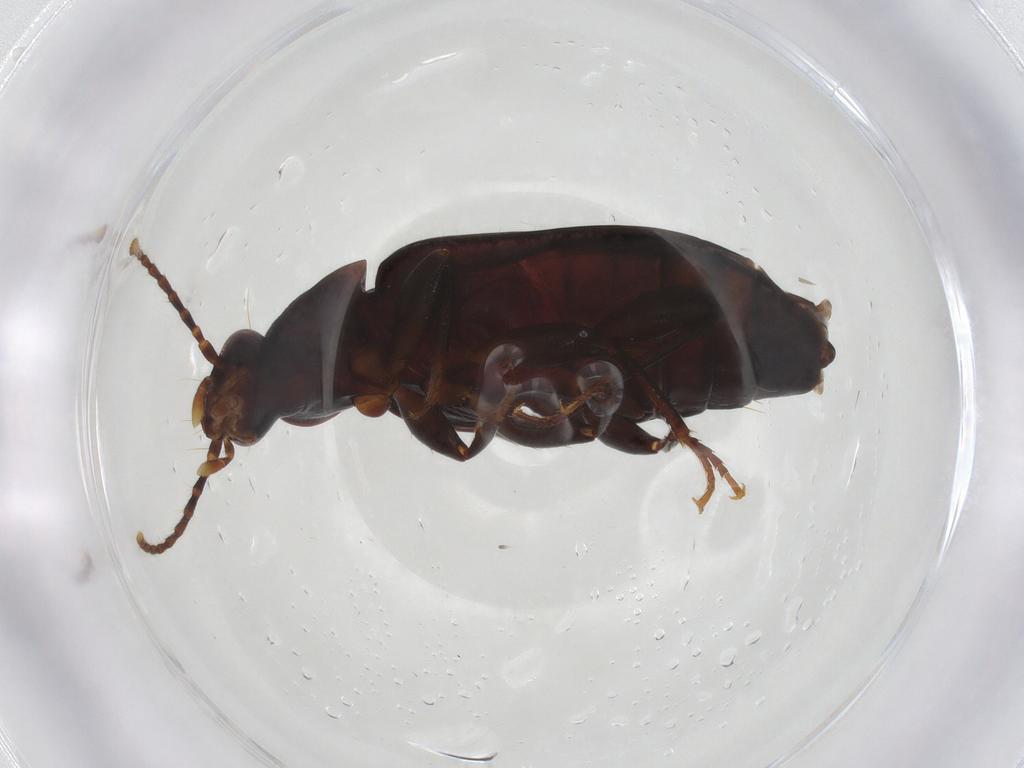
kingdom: Animalia
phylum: Arthropoda
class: Insecta
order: Coleoptera
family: Carabidae
